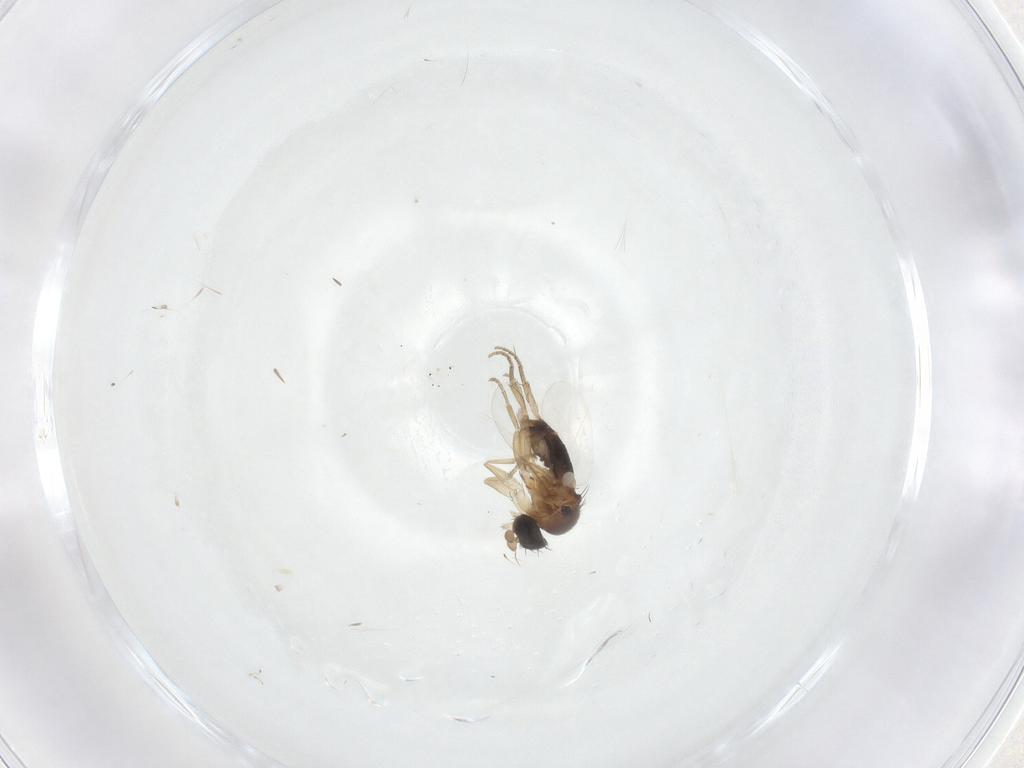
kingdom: Animalia
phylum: Arthropoda
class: Insecta
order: Diptera
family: Phoridae
